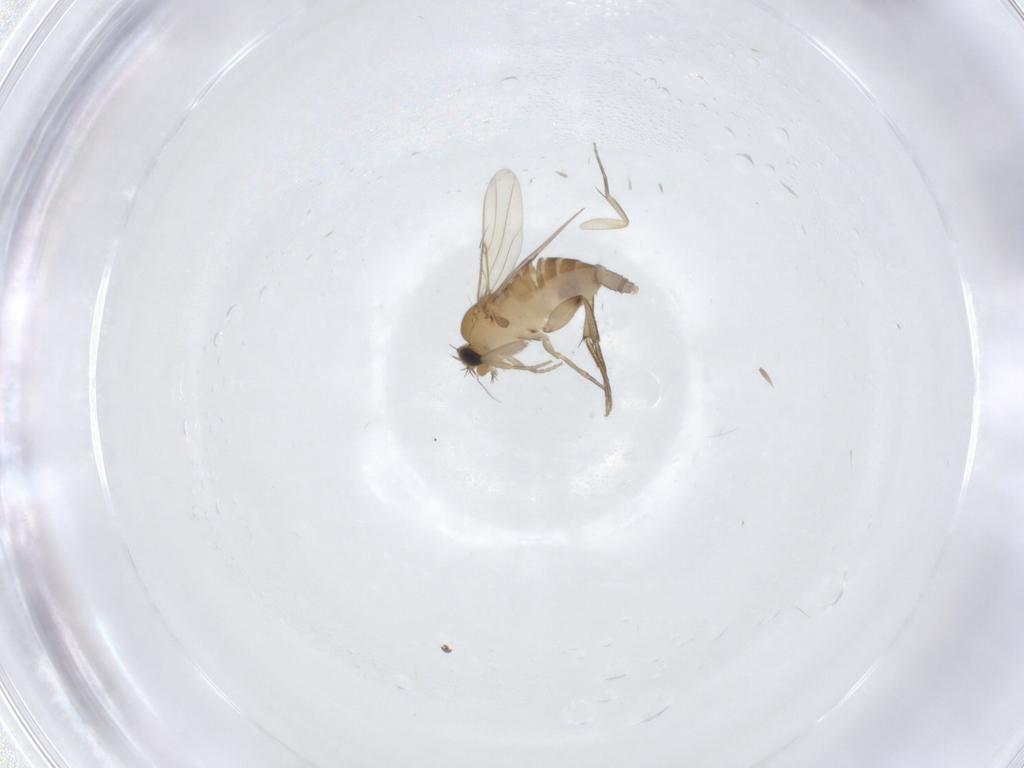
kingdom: Animalia
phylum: Arthropoda
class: Insecta
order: Diptera
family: Phoridae
